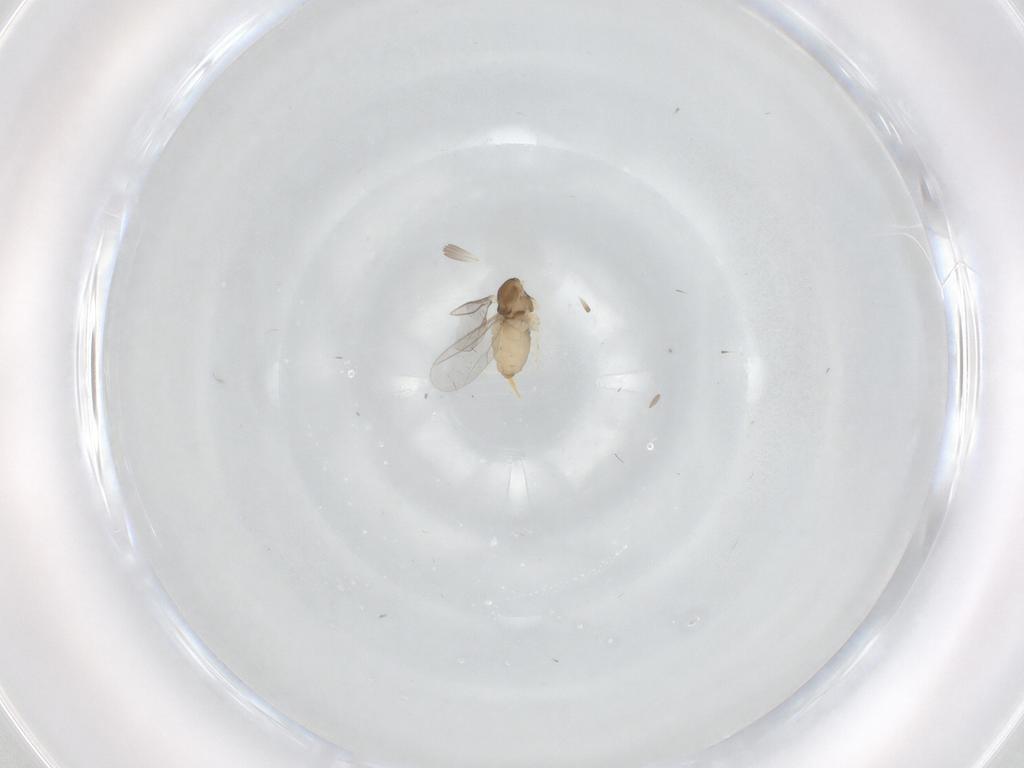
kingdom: Animalia
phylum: Arthropoda
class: Insecta
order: Diptera
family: Cecidomyiidae
